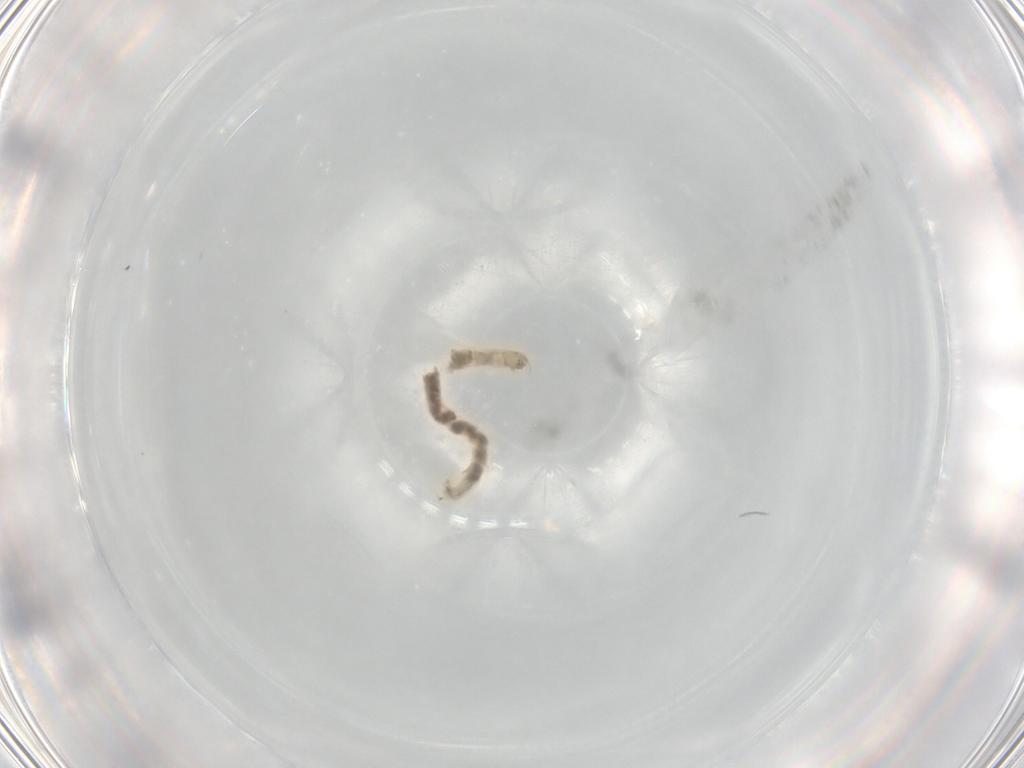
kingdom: Animalia
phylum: Arthropoda
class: Insecta
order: Diptera
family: Chironomidae
